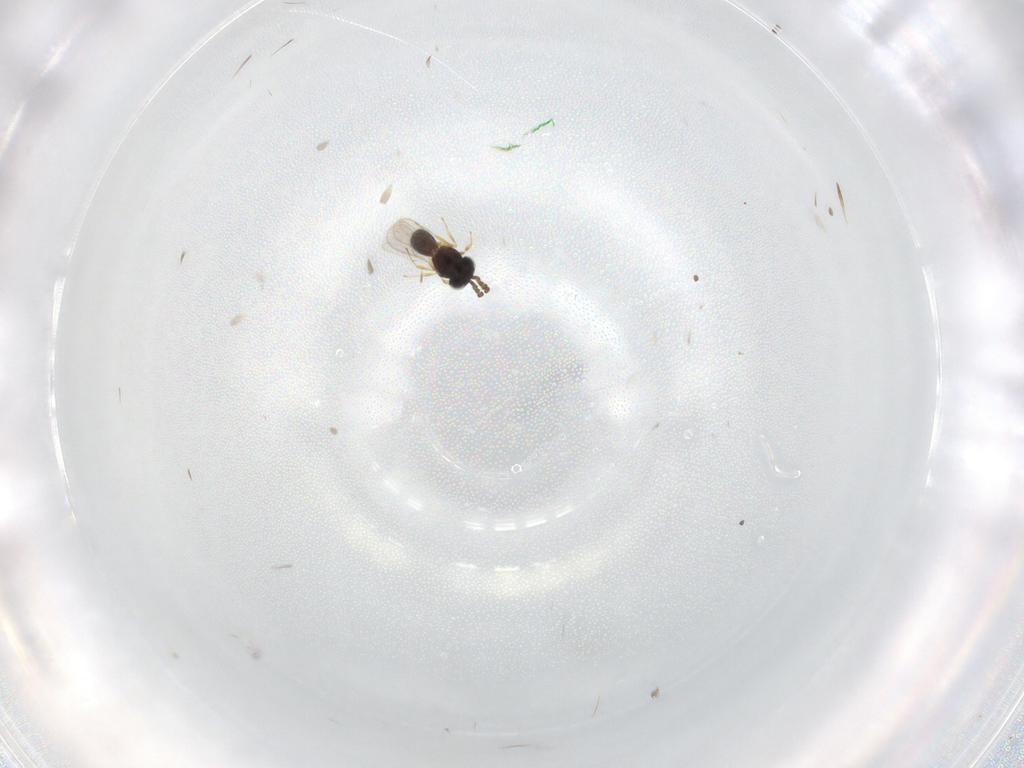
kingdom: Animalia
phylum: Arthropoda
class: Insecta
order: Hymenoptera
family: Scelionidae
